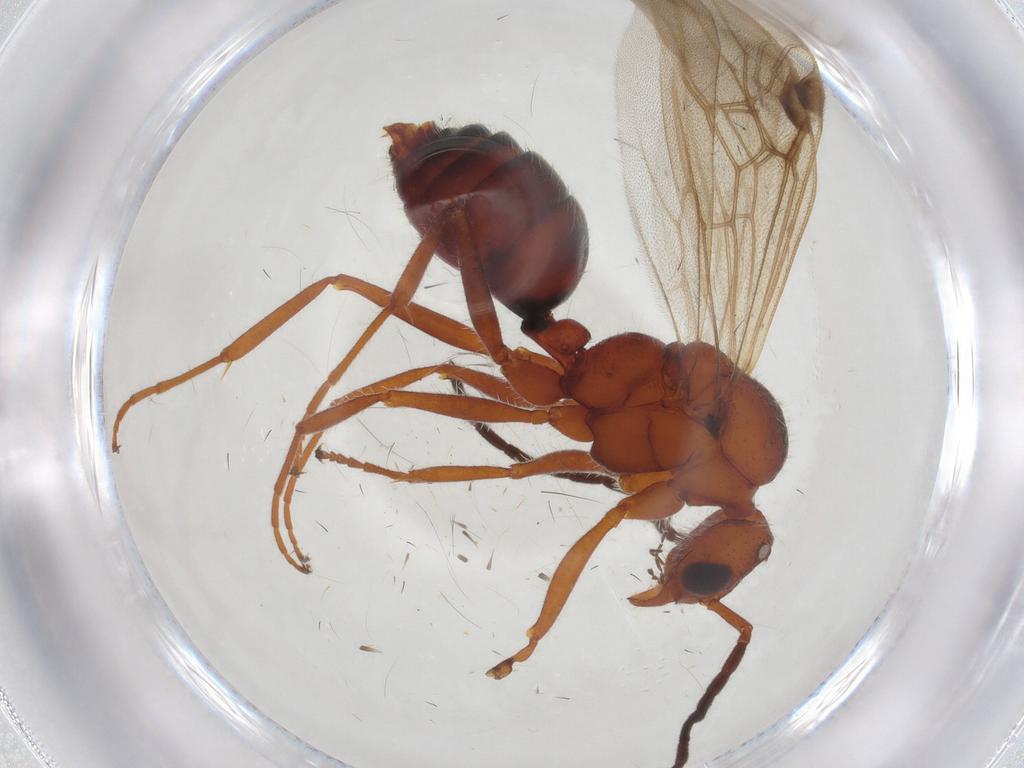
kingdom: Animalia
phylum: Arthropoda
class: Insecta
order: Hymenoptera
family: Formicidae
